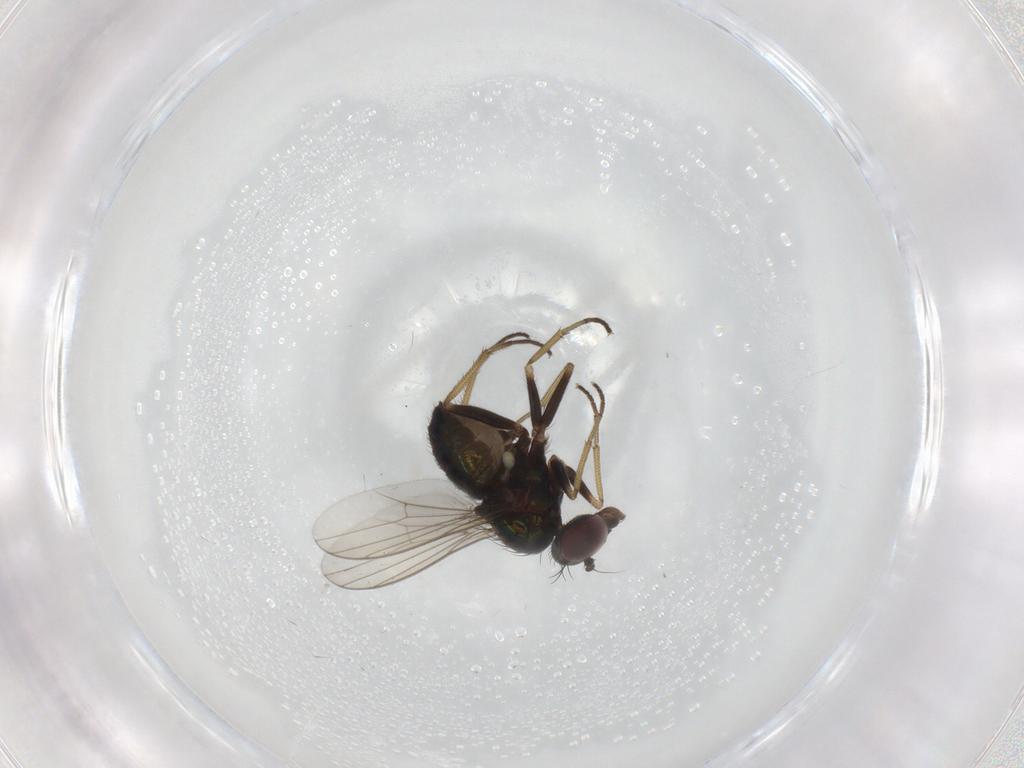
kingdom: Animalia
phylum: Arthropoda
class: Insecta
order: Diptera
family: Dolichopodidae
